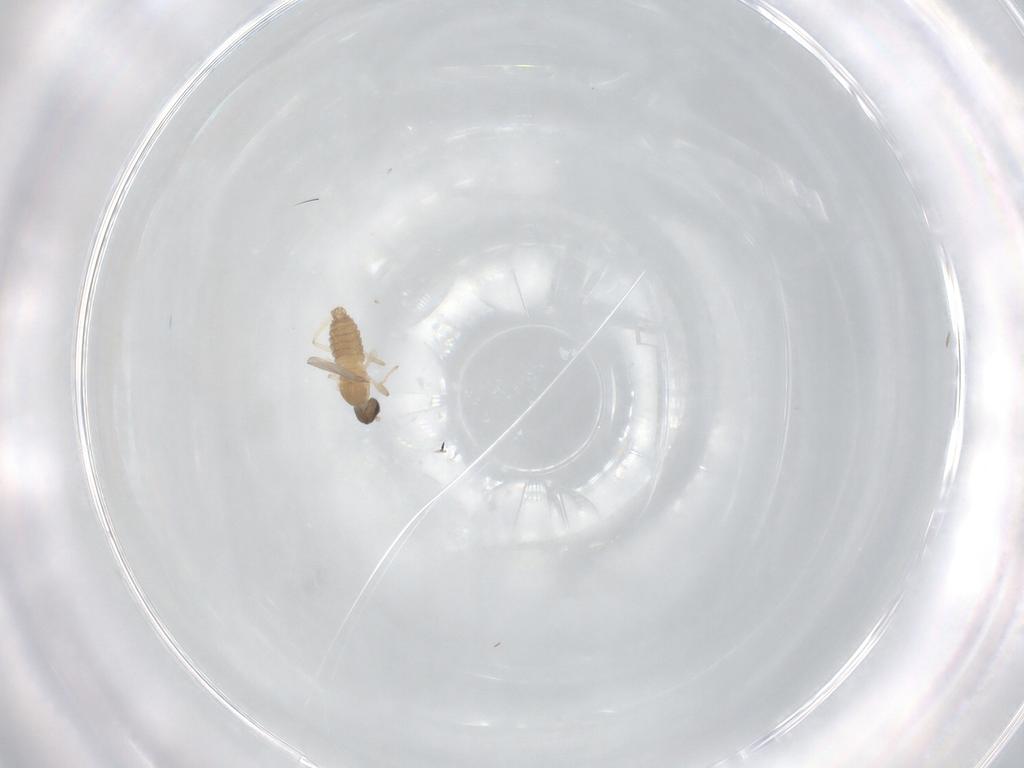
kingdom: Animalia
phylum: Arthropoda
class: Insecta
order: Diptera
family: Cecidomyiidae
